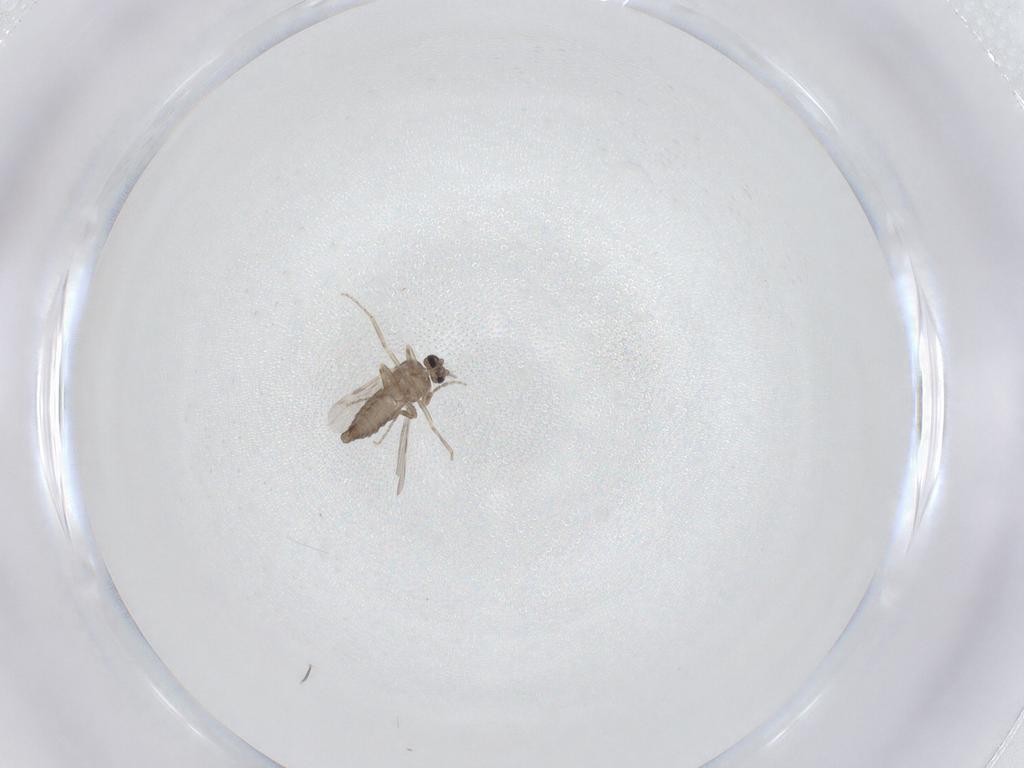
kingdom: Animalia
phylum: Arthropoda
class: Insecta
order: Diptera
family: Ceratopogonidae
